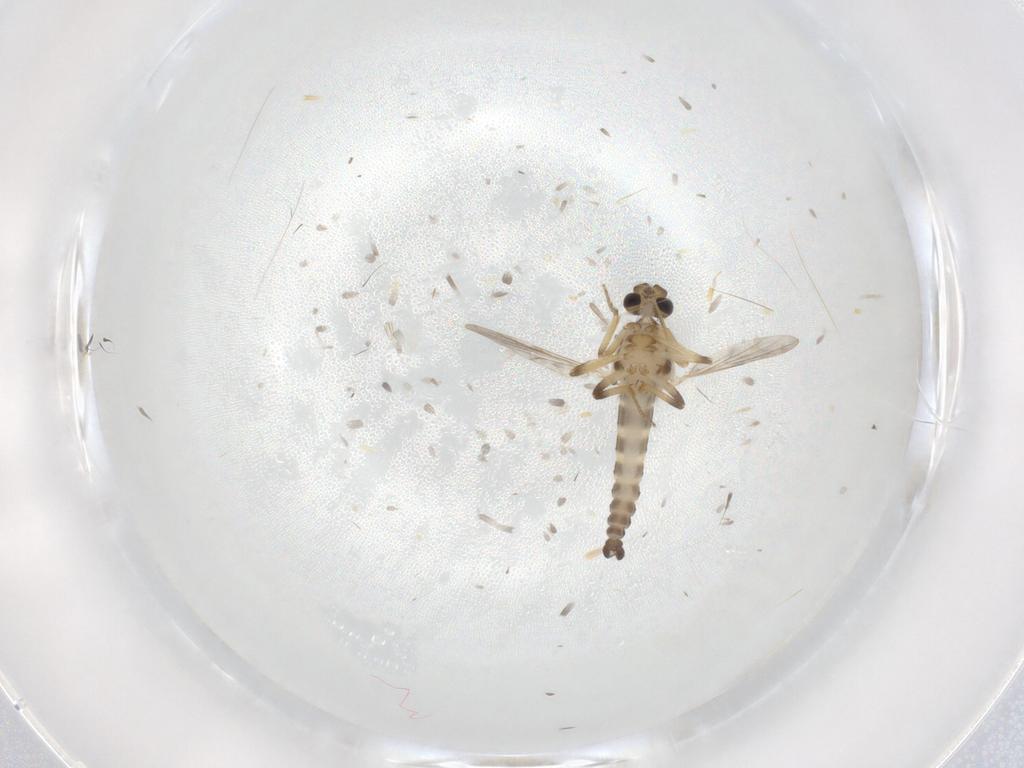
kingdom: Animalia
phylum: Arthropoda
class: Insecta
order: Diptera
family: Ceratopogonidae
